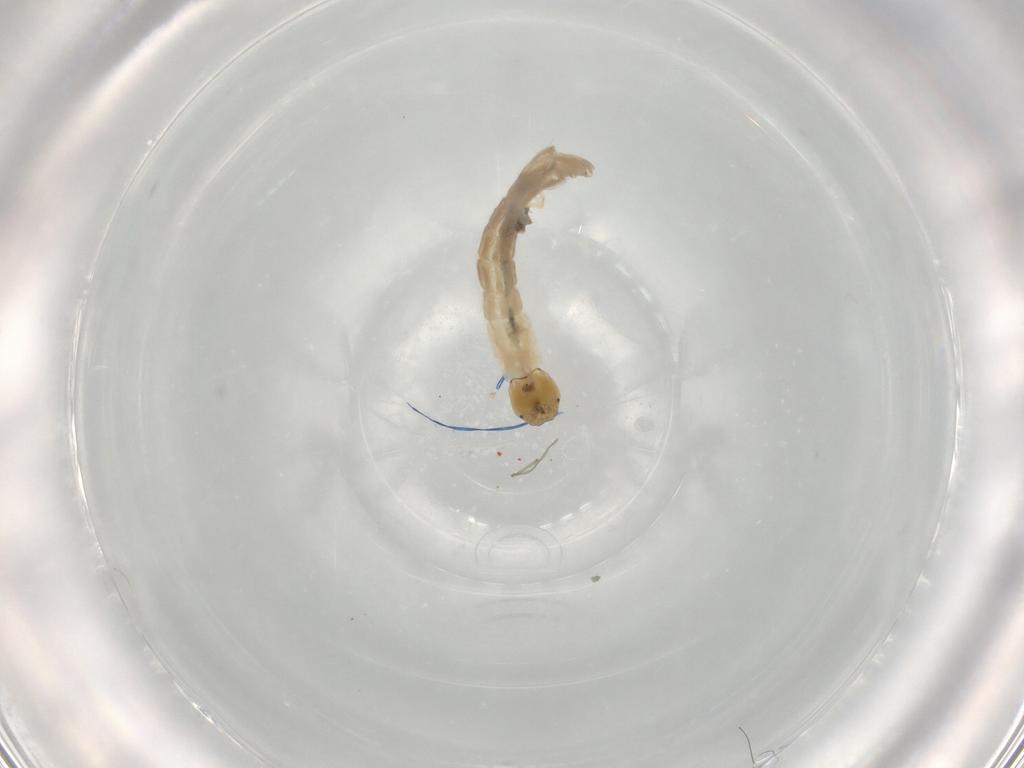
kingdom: Animalia
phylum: Arthropoda
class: Insecta
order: Diptera
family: Chironomidae
